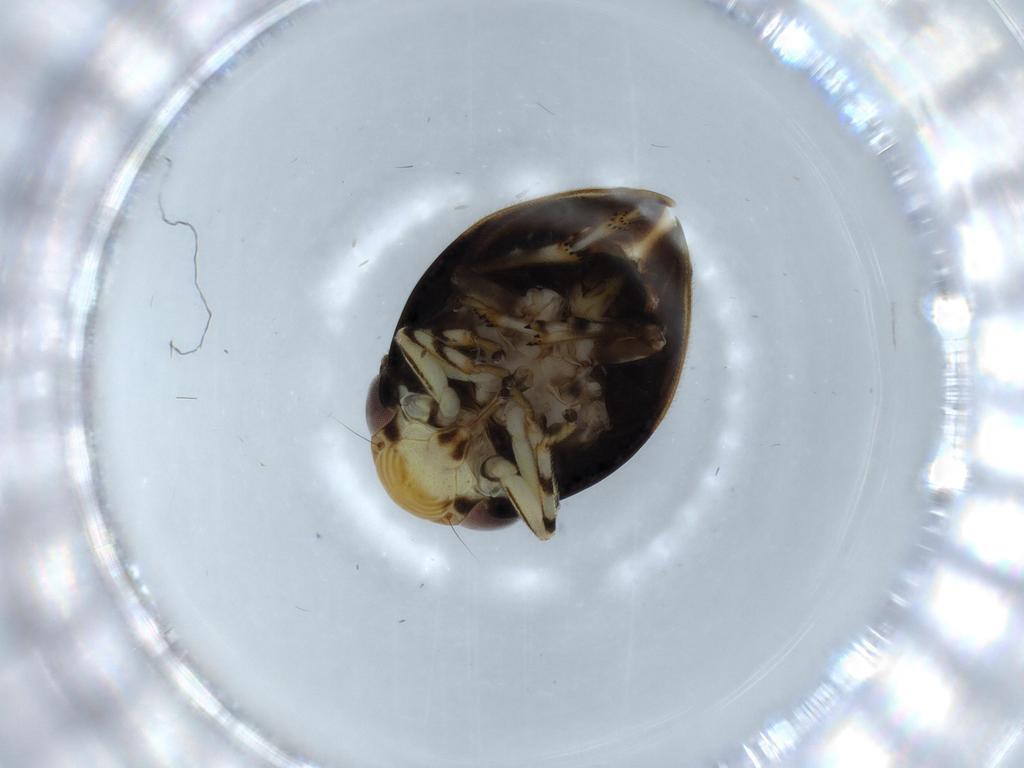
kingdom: Animalia
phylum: Arthropoda
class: Insecta
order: Hemiptera
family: Clastopteridae
